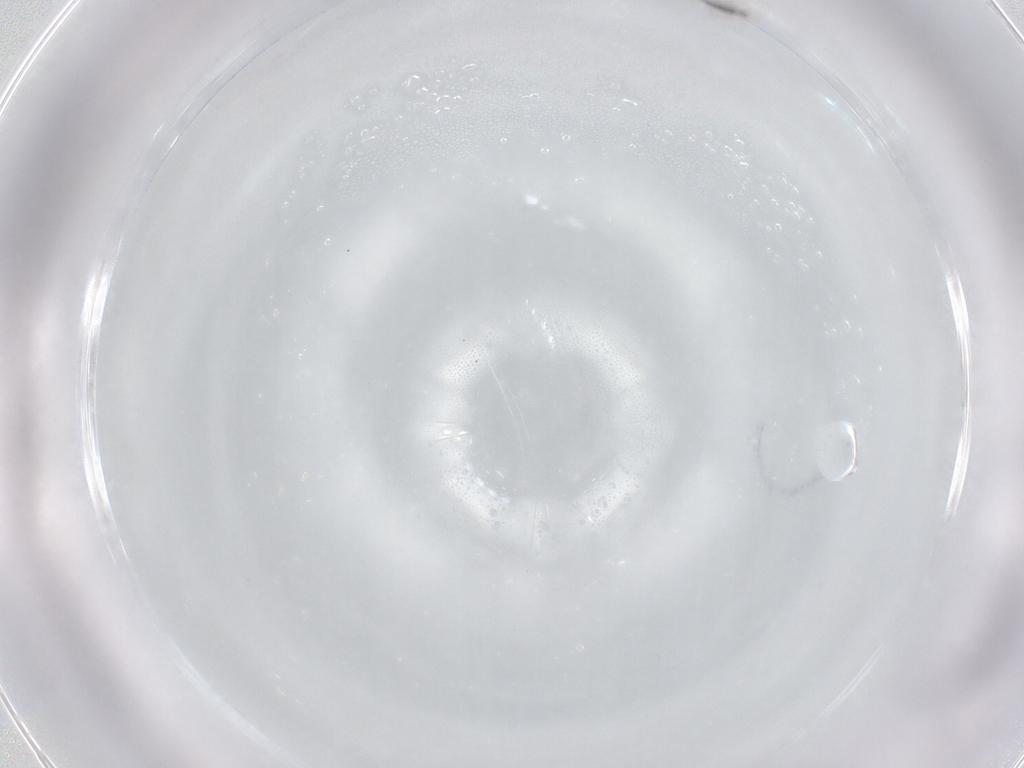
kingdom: Animalia
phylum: Arthropoda
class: Insecta
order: Diptera
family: Cecidomyiidae
